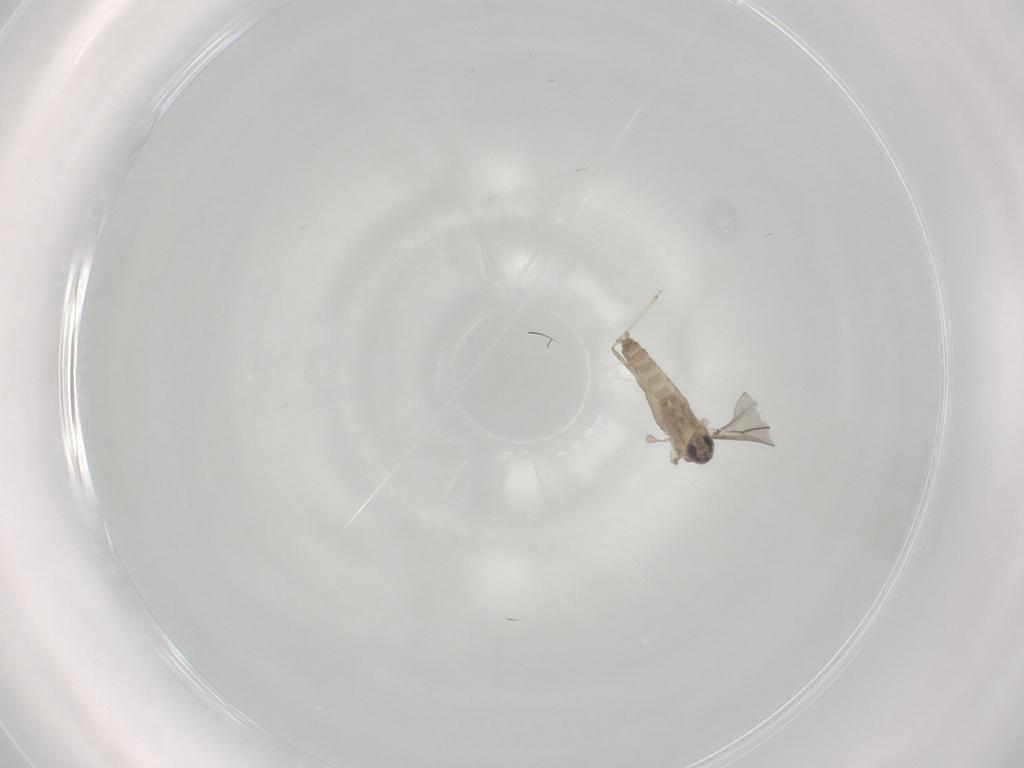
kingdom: Animalia
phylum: Arthropoda
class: Insecta
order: Diptera
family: Cecidomyiidae
